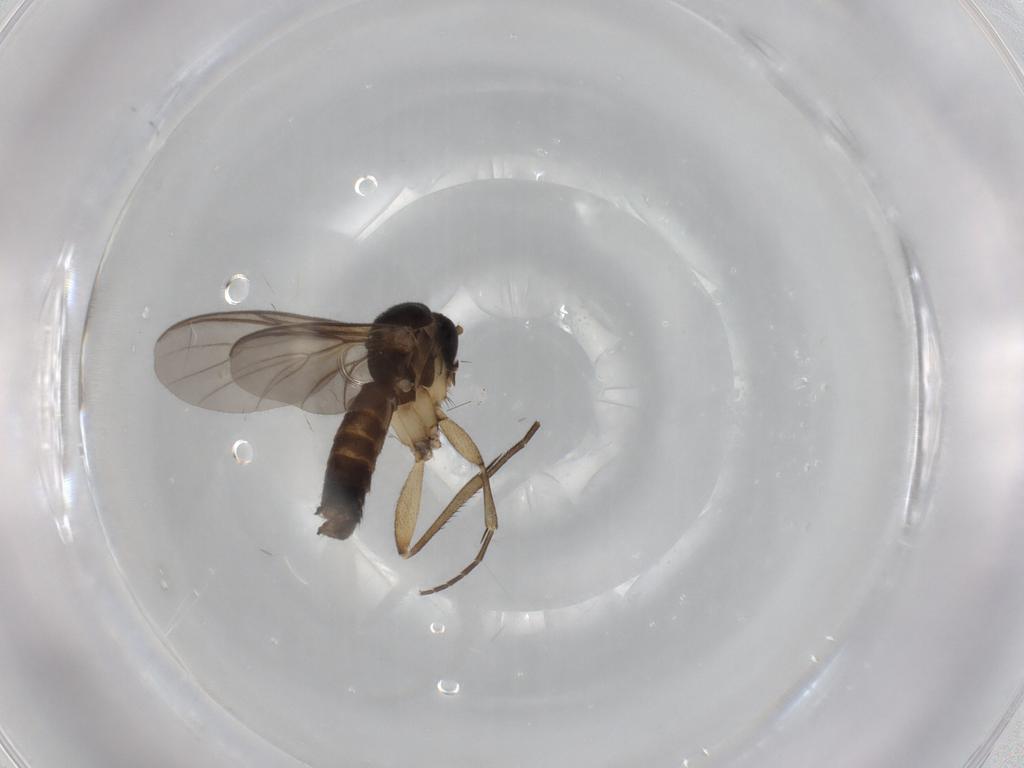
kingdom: Animalia
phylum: Arthropoda
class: Insecta
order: Diptera
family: Mycetophilidae
